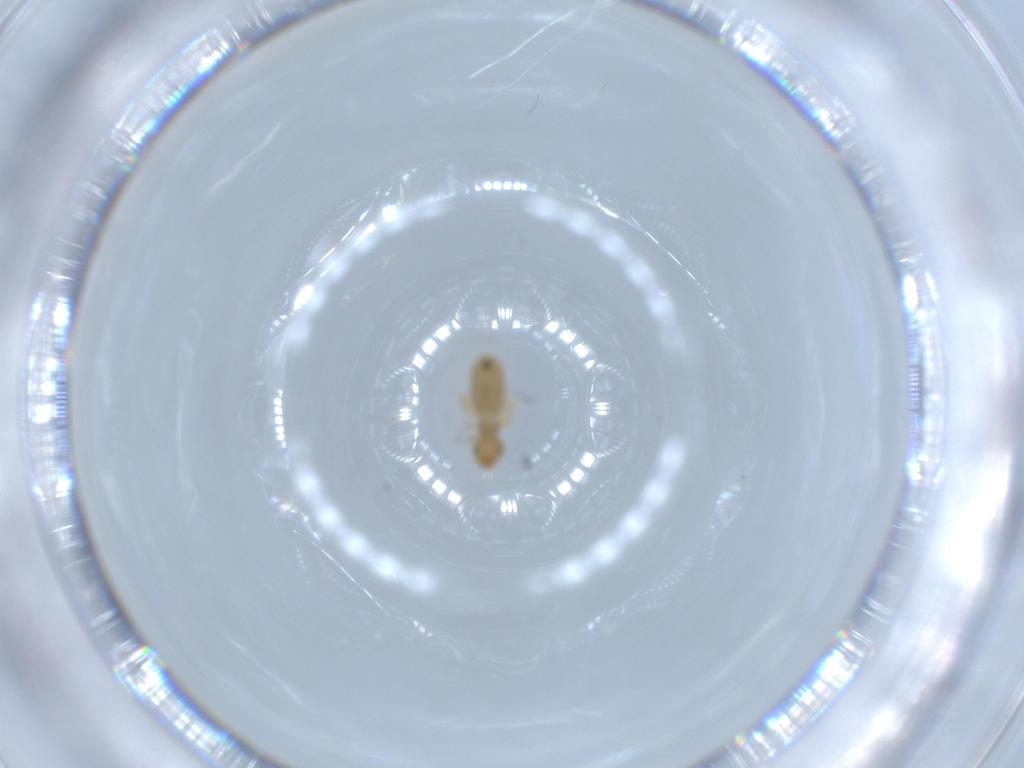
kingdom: Animalia
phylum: Arthropoda
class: Insecta
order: Psocodea
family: Liposcelididae
